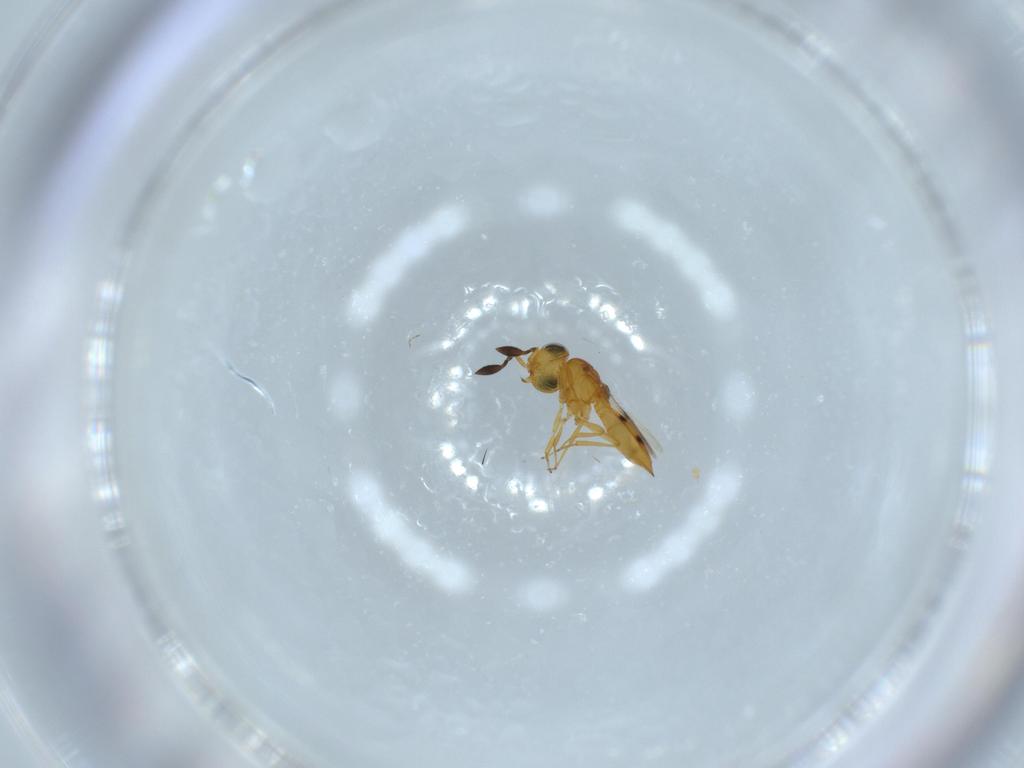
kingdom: Animalia
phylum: Arthropoda
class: Insecta
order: Hymenoptera
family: Scelionidae
